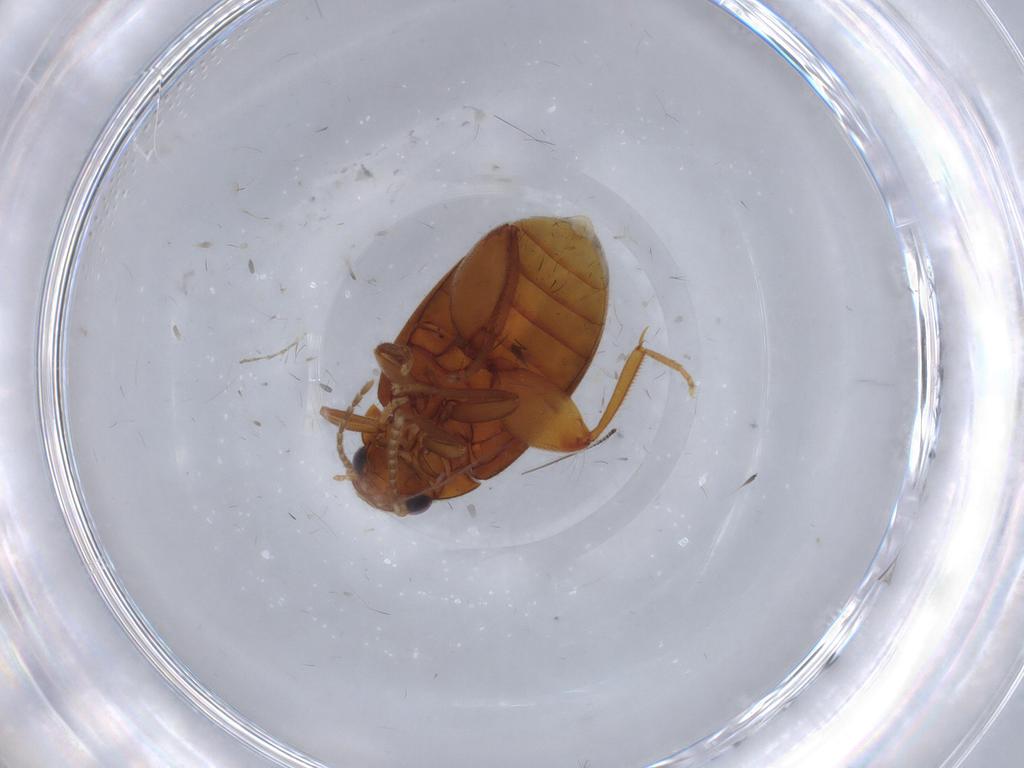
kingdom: Animalia
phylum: Arthropoda
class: Insecta
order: Coleoptera
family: Scirtidae
